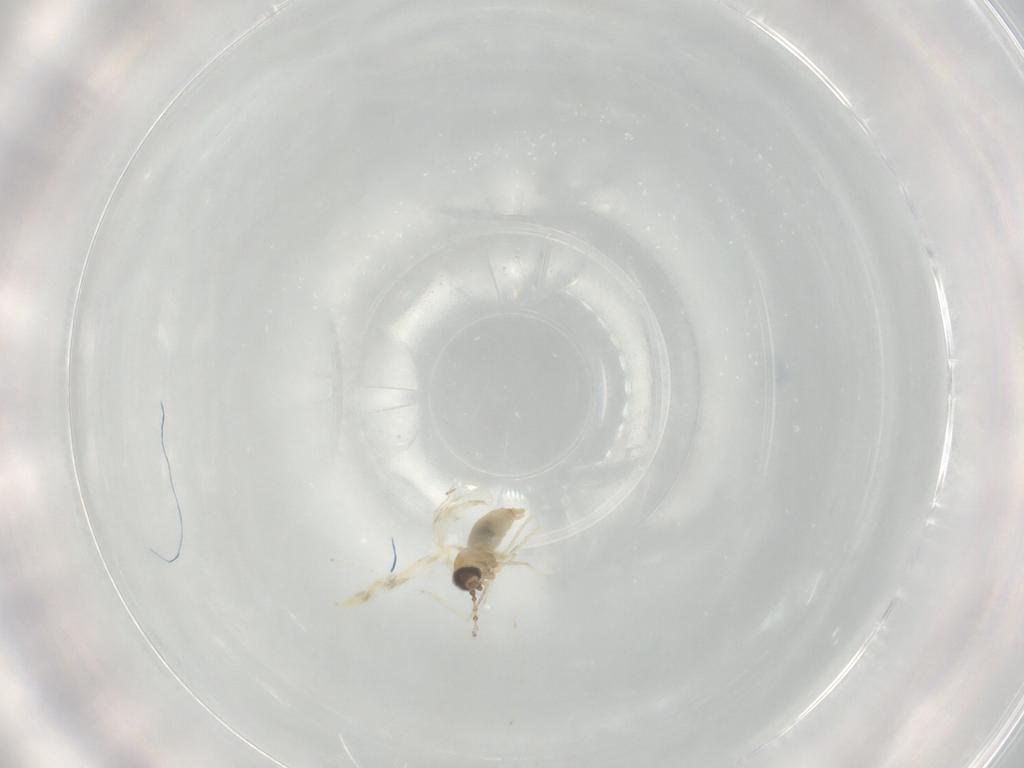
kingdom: Animalia
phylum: Arthropoda
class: Insecta
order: Diptera
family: Cecidomyiidae
